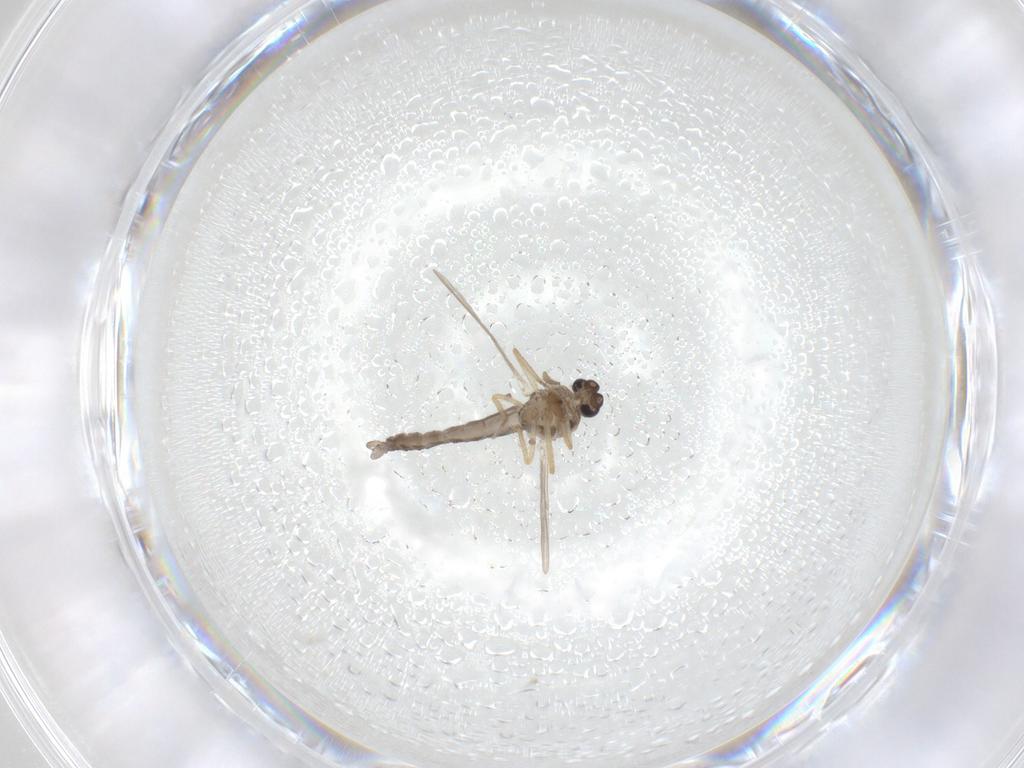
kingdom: Animalia
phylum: Arthropoda
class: Insecta
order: Diptera
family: Ceratopogonidae
